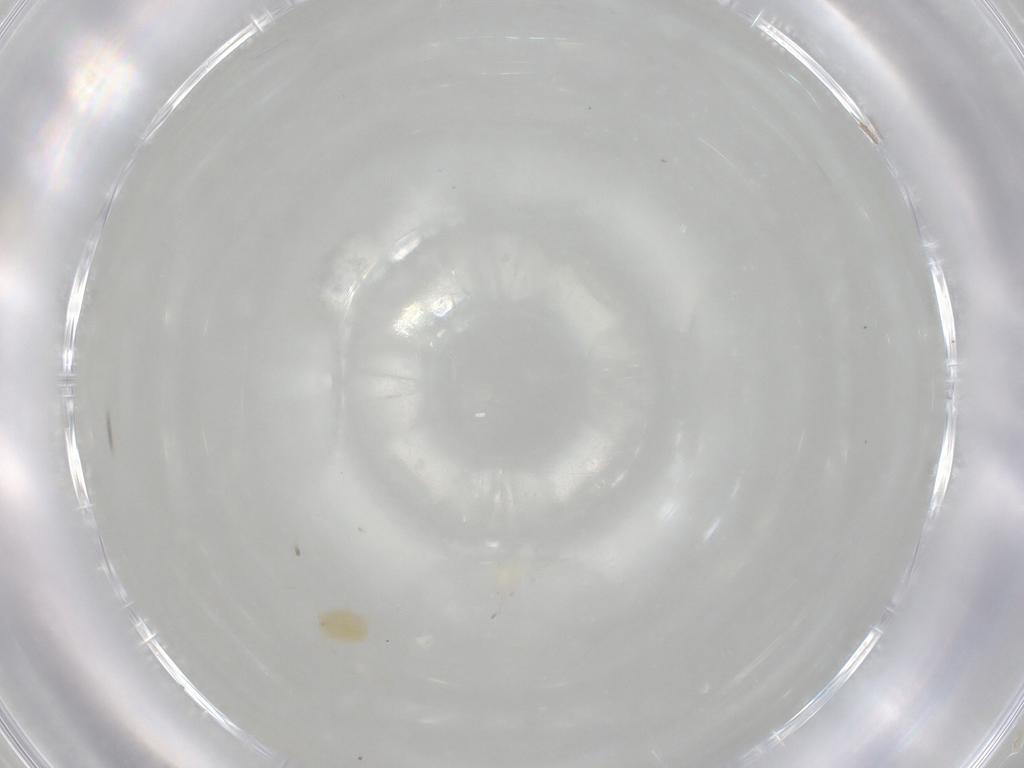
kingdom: Animalia
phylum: Arthropoda
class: Arachnida
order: Mesostigmata
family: Phytoseiidae
